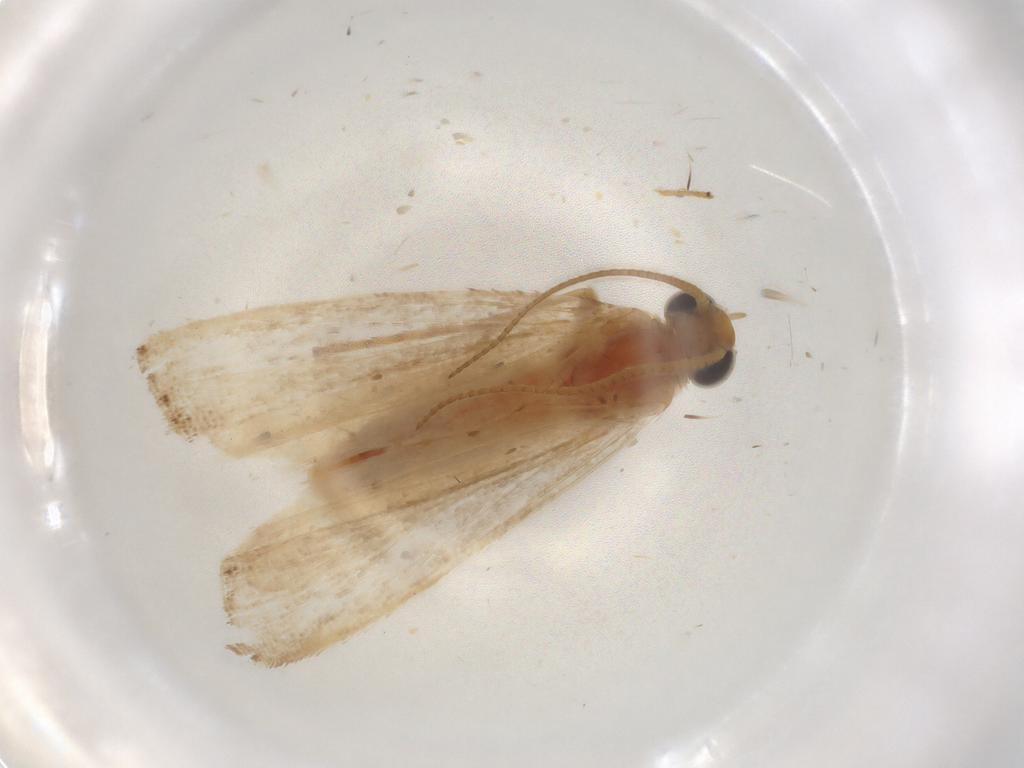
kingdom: Animalia
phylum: Arthropoda
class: Insecta
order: Lepidoptera
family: Pyralidae
